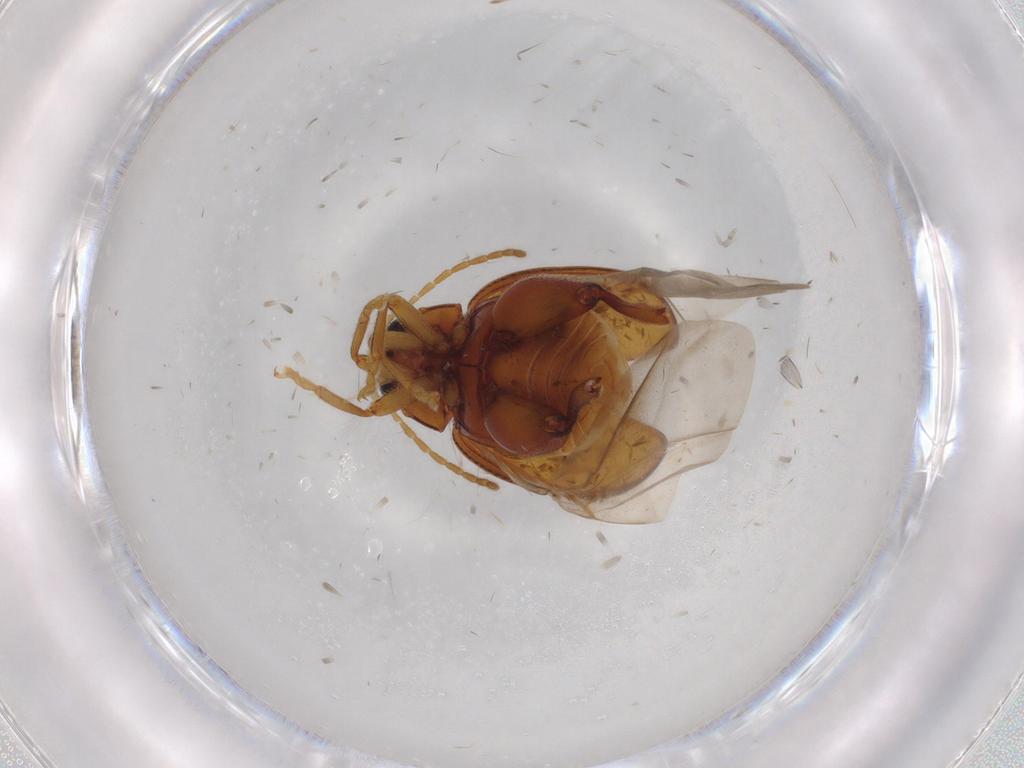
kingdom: Animalia
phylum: Arthropoda
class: Insecta
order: Coleoptera
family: Chrysomelidae
